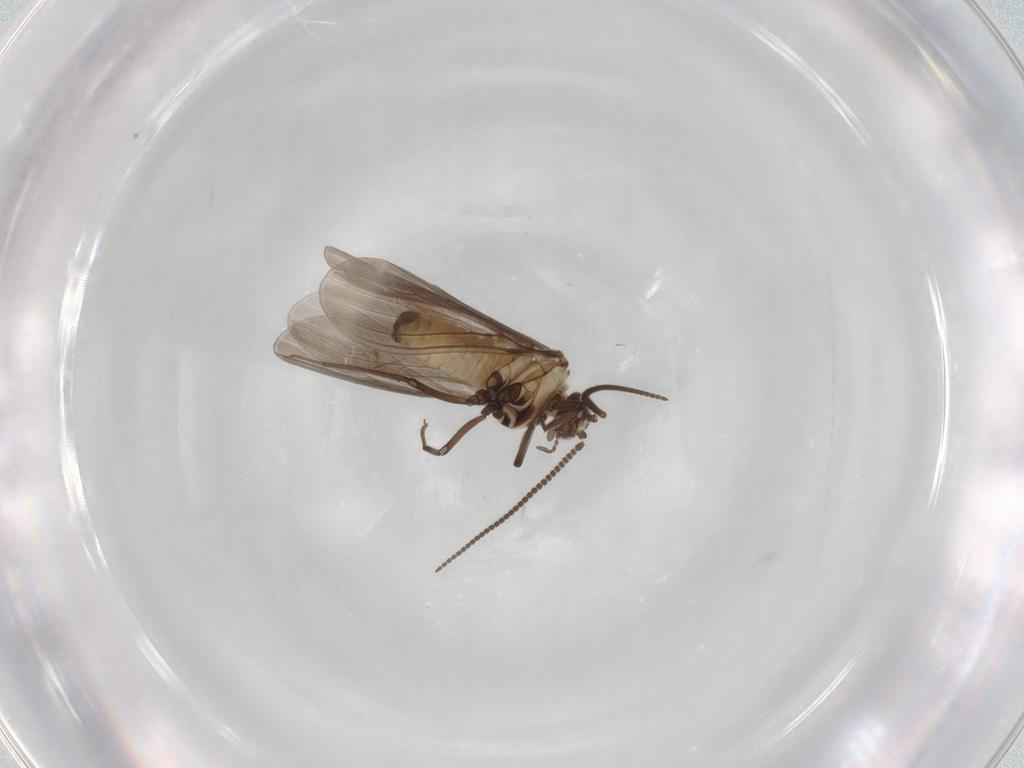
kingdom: Animalia
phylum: Arthropoda
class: Insecta
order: Neuroptera
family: Coniopterygidae
